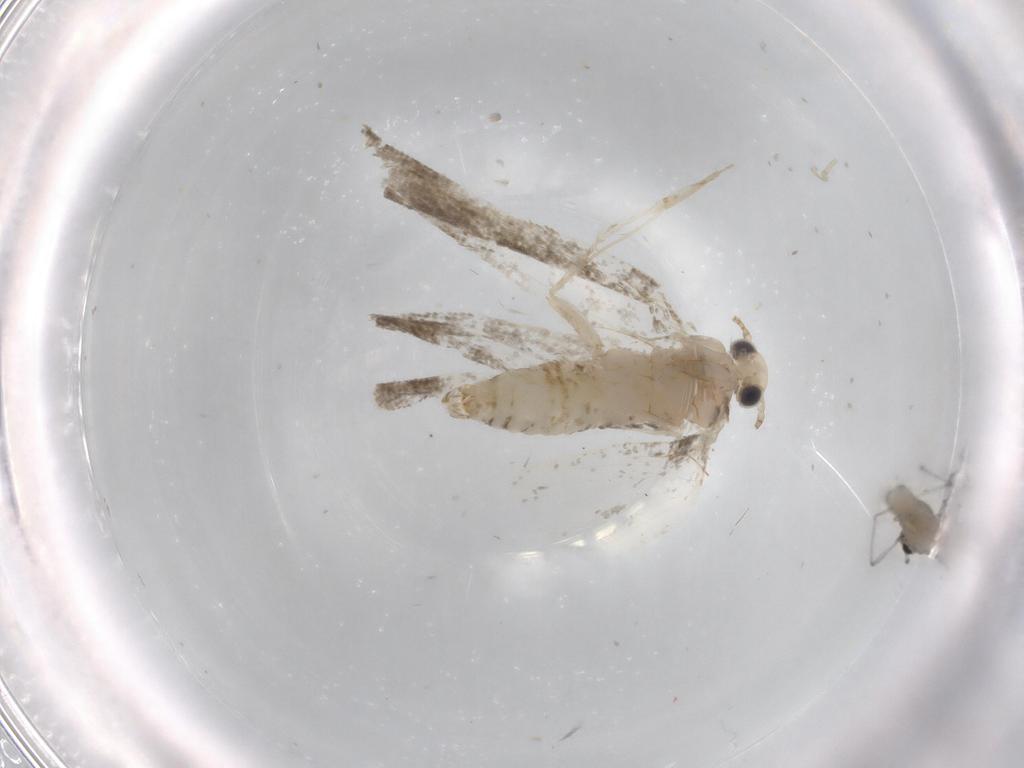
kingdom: Animalia
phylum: Arthropoda
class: Insecta
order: Lepidoptera
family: Psychidae
